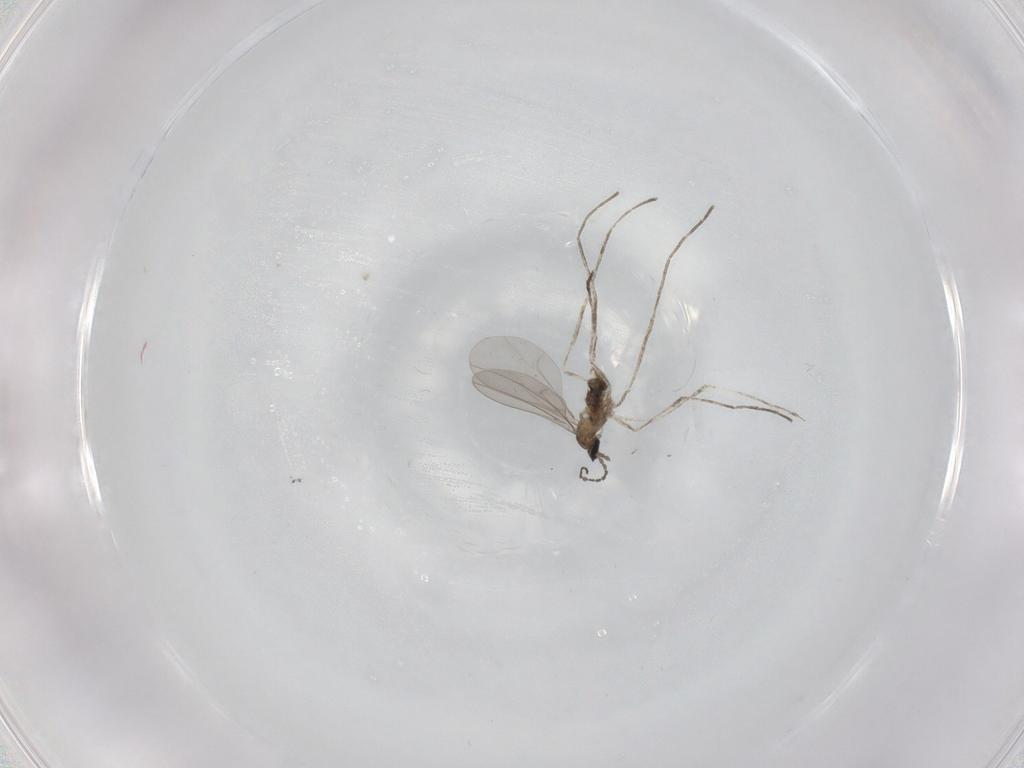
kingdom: Animalia
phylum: Arthropoda
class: Insecta
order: Diptera
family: Cecidomyiidae
